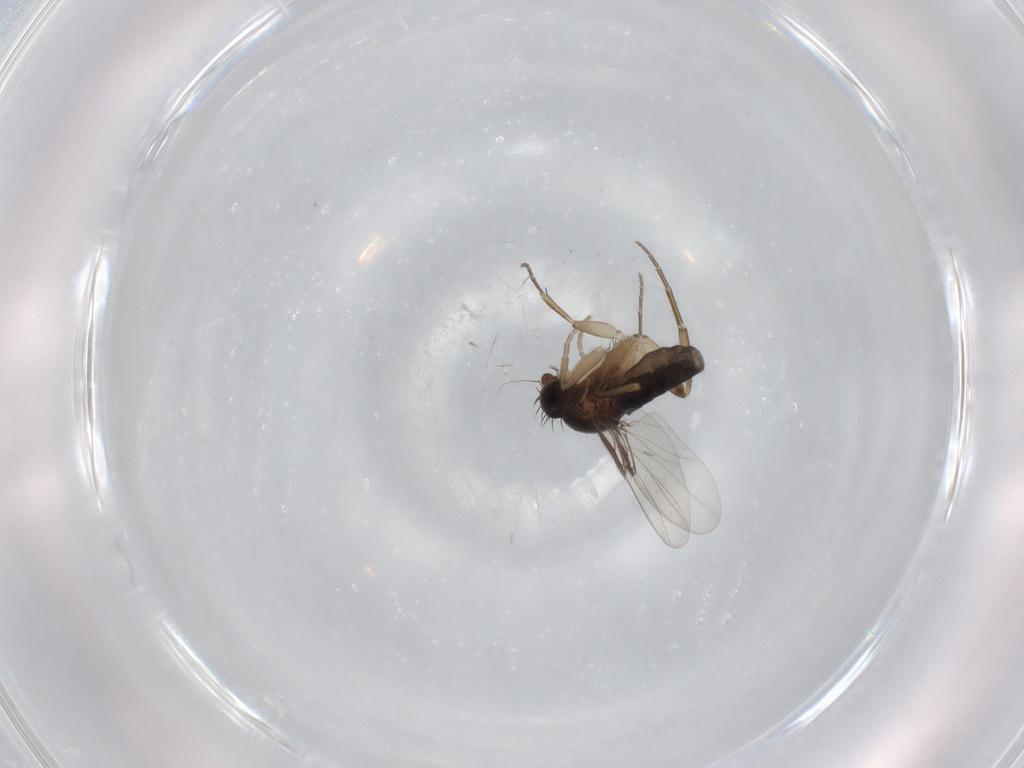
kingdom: Animalia
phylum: Arthropoda
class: Insecta
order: Diptera
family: Phoridae
